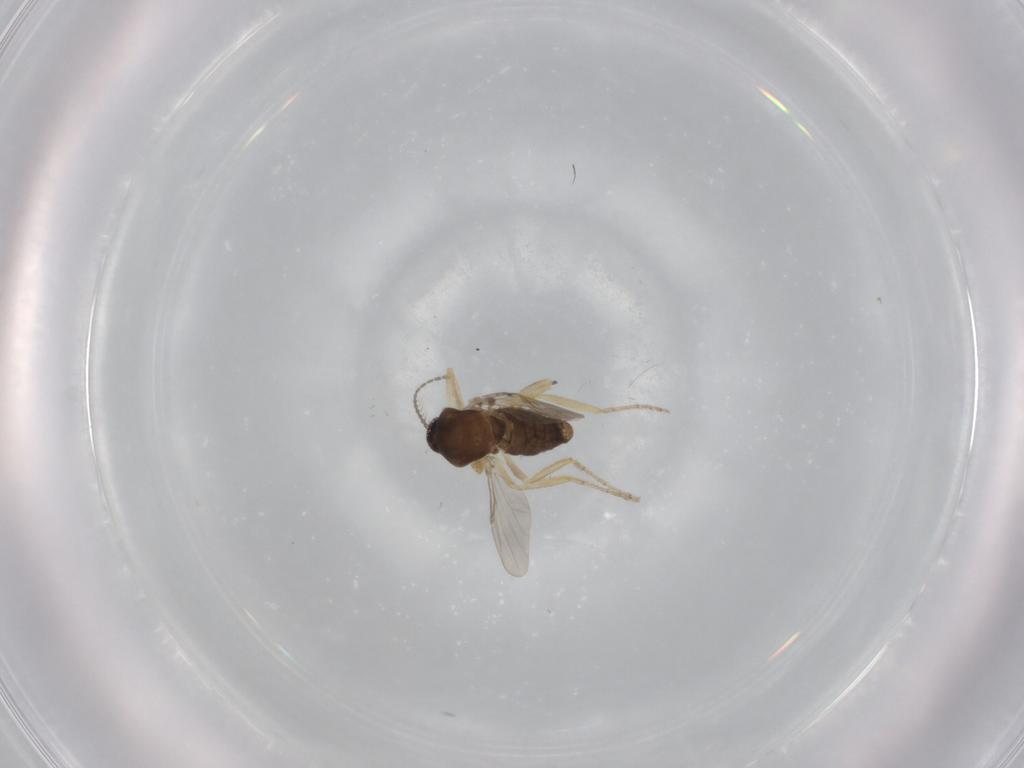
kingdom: Animalia
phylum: Arthropoda
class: Insecta
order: Diptera
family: Ceratopogonidae
